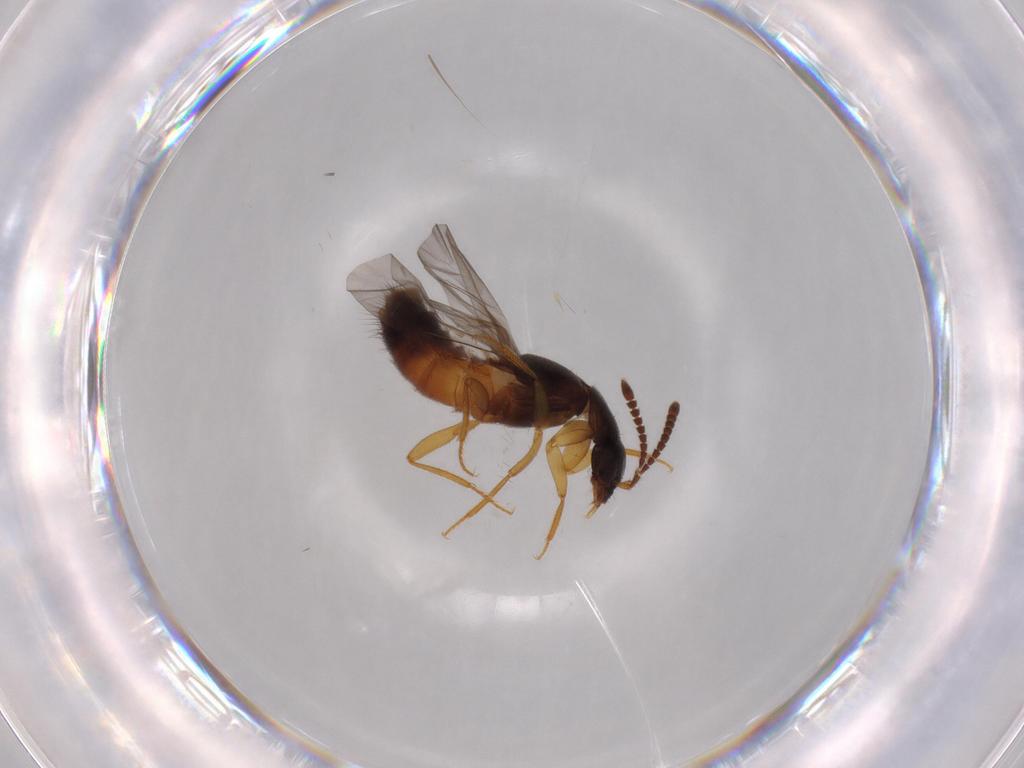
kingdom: Animalia
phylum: Arthropoda
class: Insecta
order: Coleoptera
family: Staphylinidae
